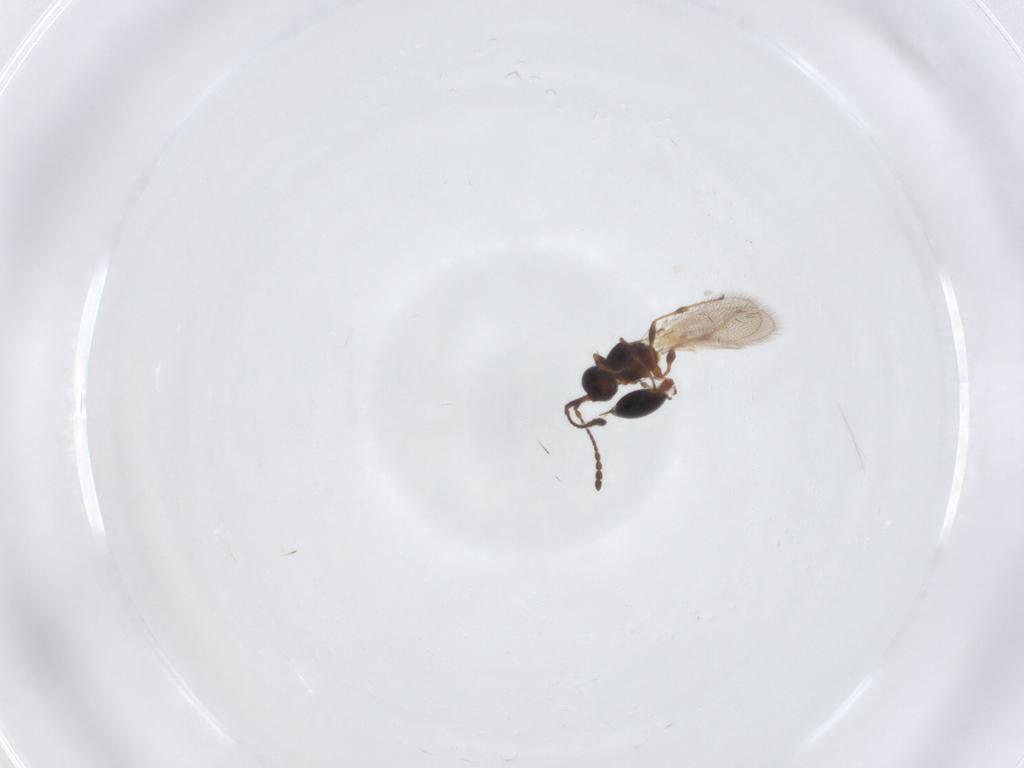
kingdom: Animalia
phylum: Arthropoda
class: Insecta
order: Hymenoptera
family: Diapriidae
